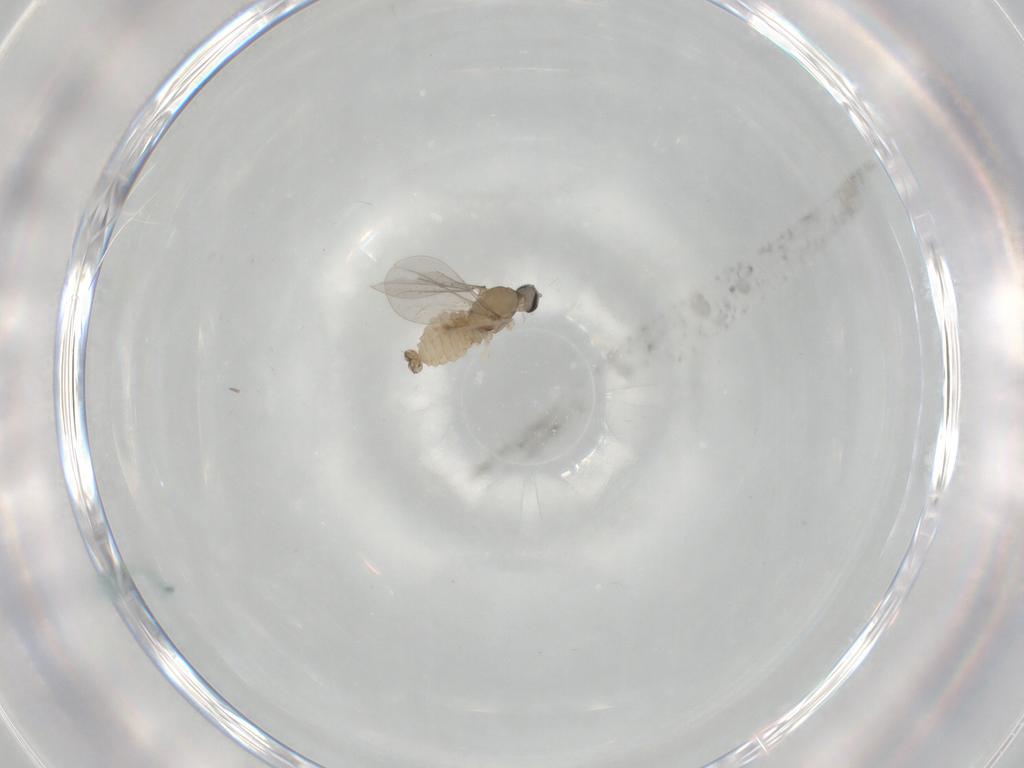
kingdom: Animalia
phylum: Arthropoda
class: Insecta
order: Diptera
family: Cecidomyiidae
